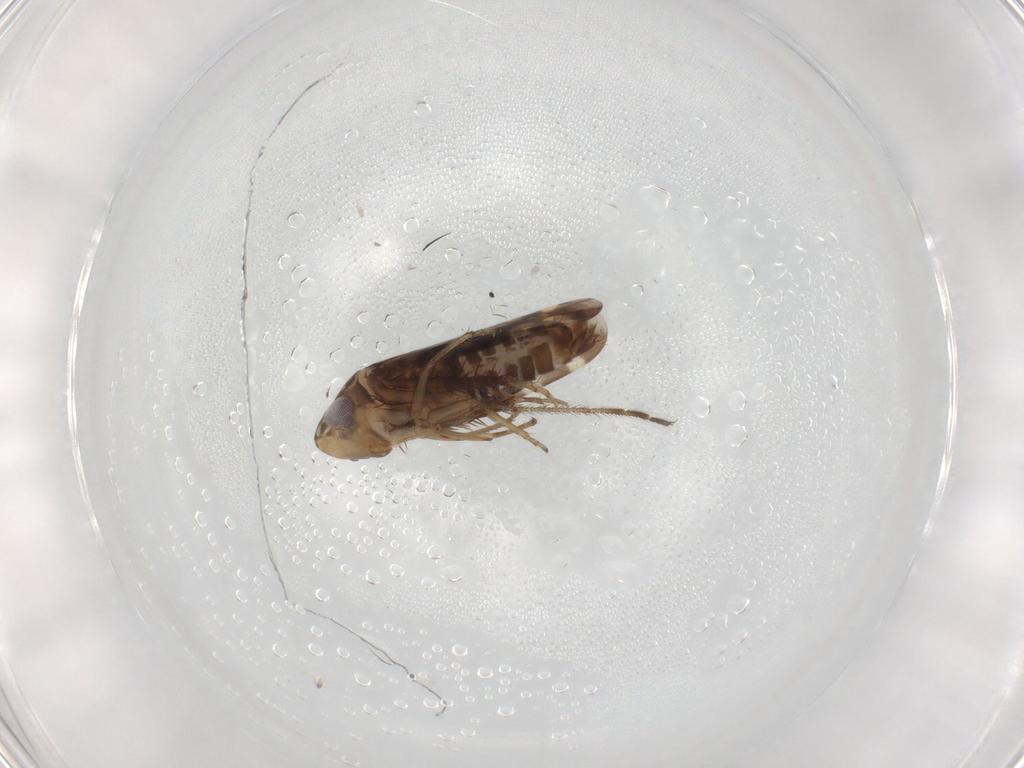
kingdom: Animalia
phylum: Arthropoda
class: Insecta
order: Hemiptera
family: Cicadellidae
